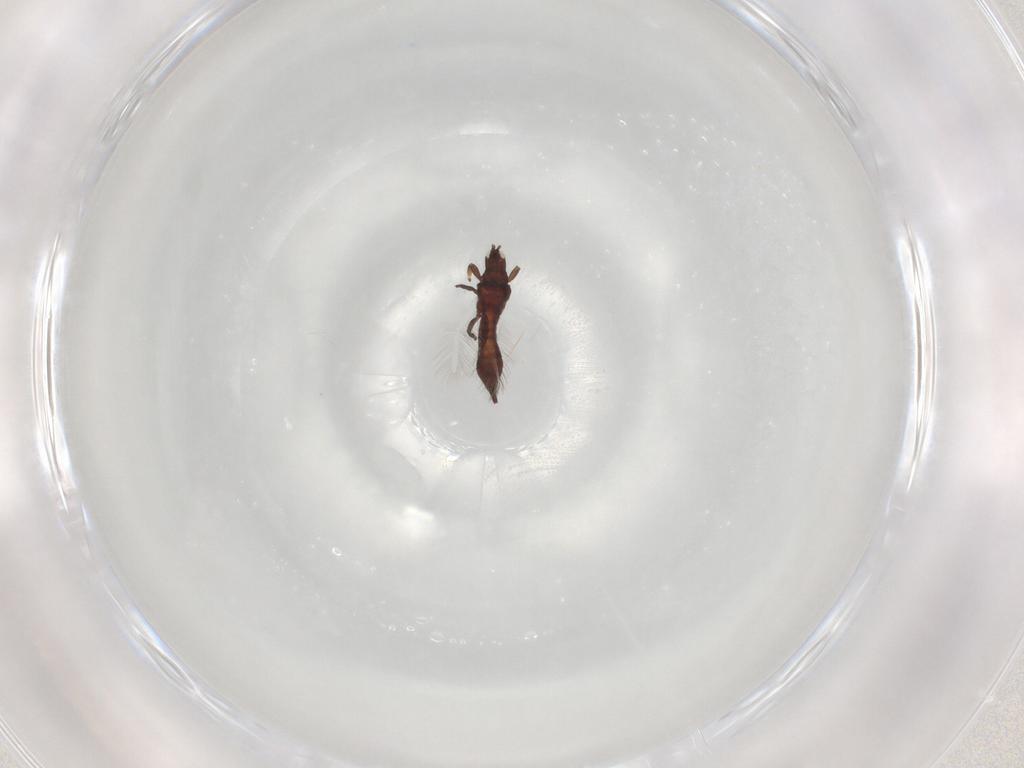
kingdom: Animalia
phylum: Arthropoda
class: Insecta
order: Thysanoptera
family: Phlaeothripidae
